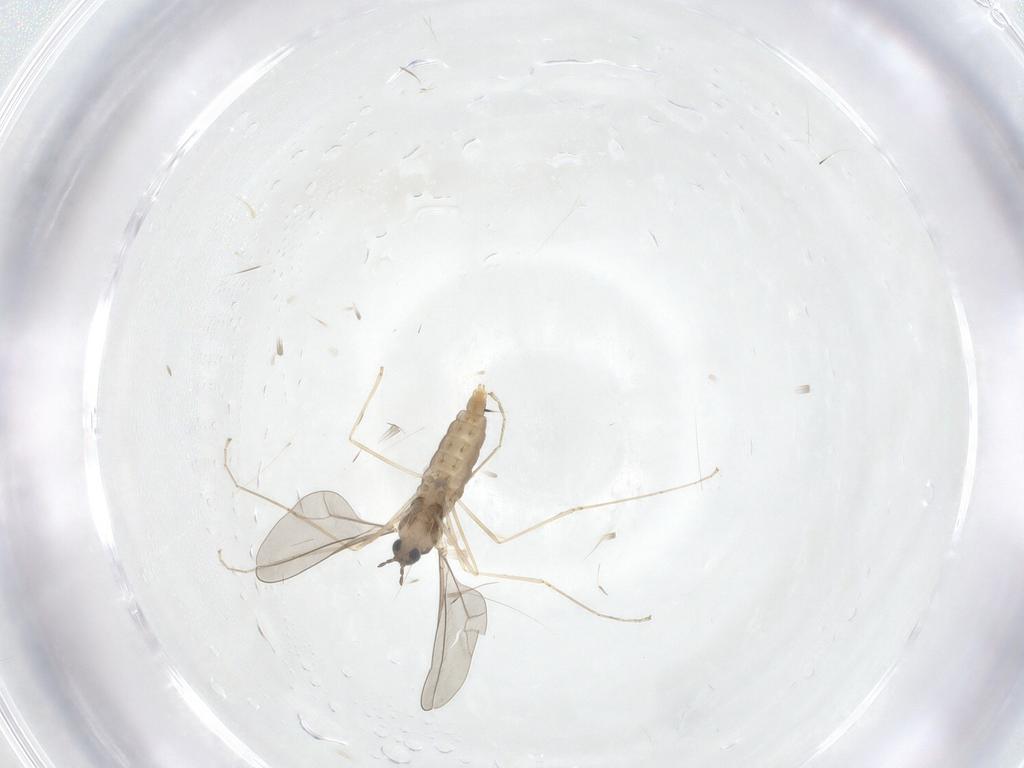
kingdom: Animalia
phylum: Arthropoda
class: Insecta
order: Diptera
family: Cecidomyiidae
